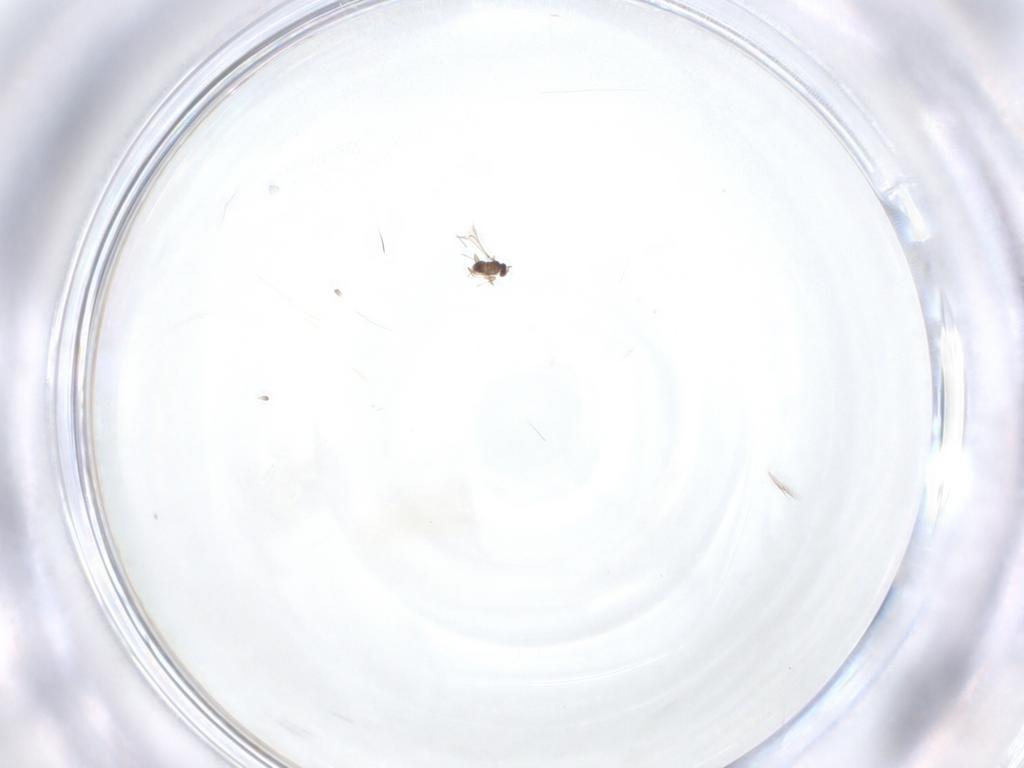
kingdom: Animalia
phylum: Arthropoda
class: Insecta
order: Hymenoptera
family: Mymaridae
